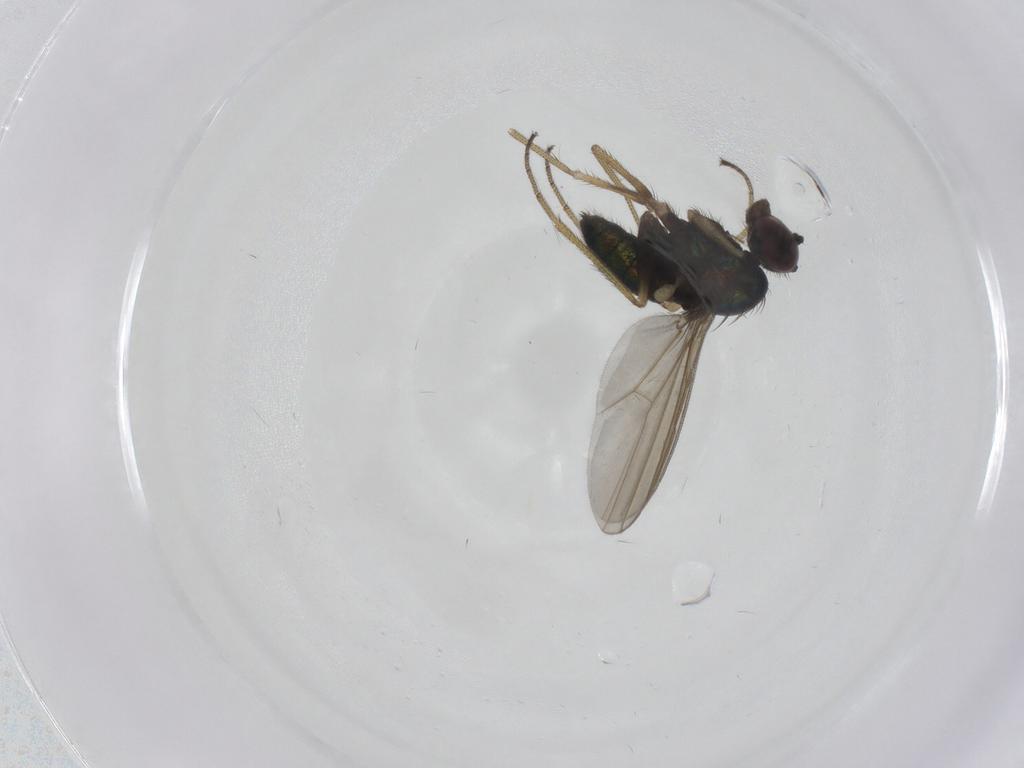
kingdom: Animalia
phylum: Arthropoda
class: Insecta
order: Diptera
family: Dolichopodidae
